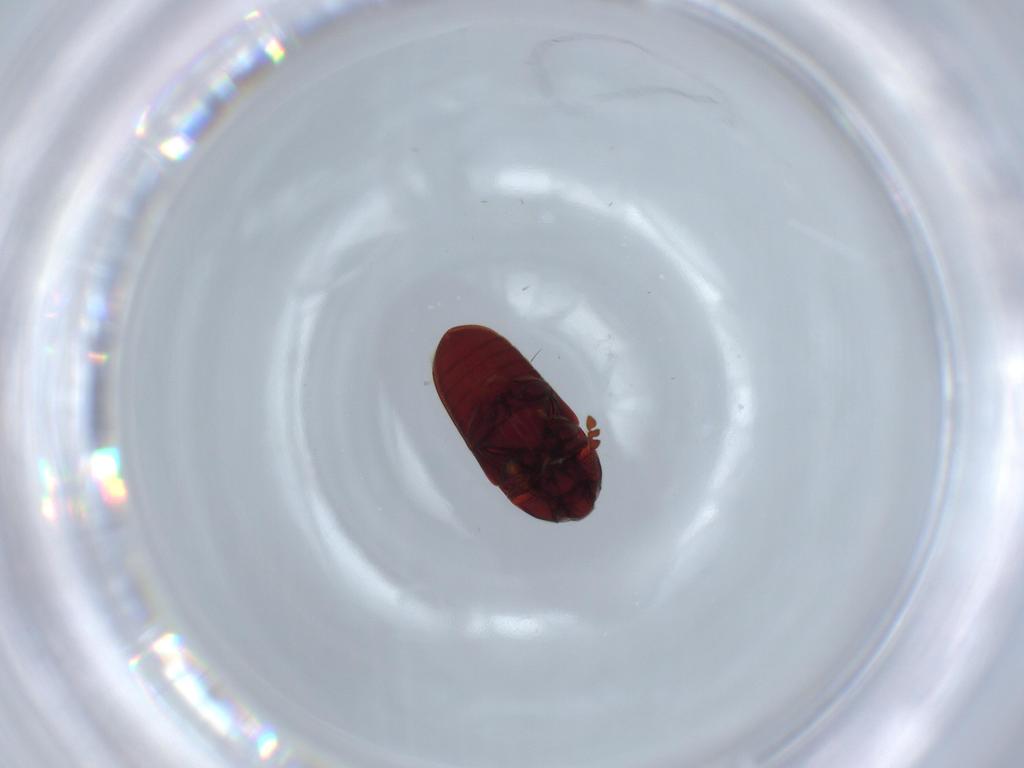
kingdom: Animalia
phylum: Arthropoda
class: Insecta
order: Coleoptera
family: Throscidae
